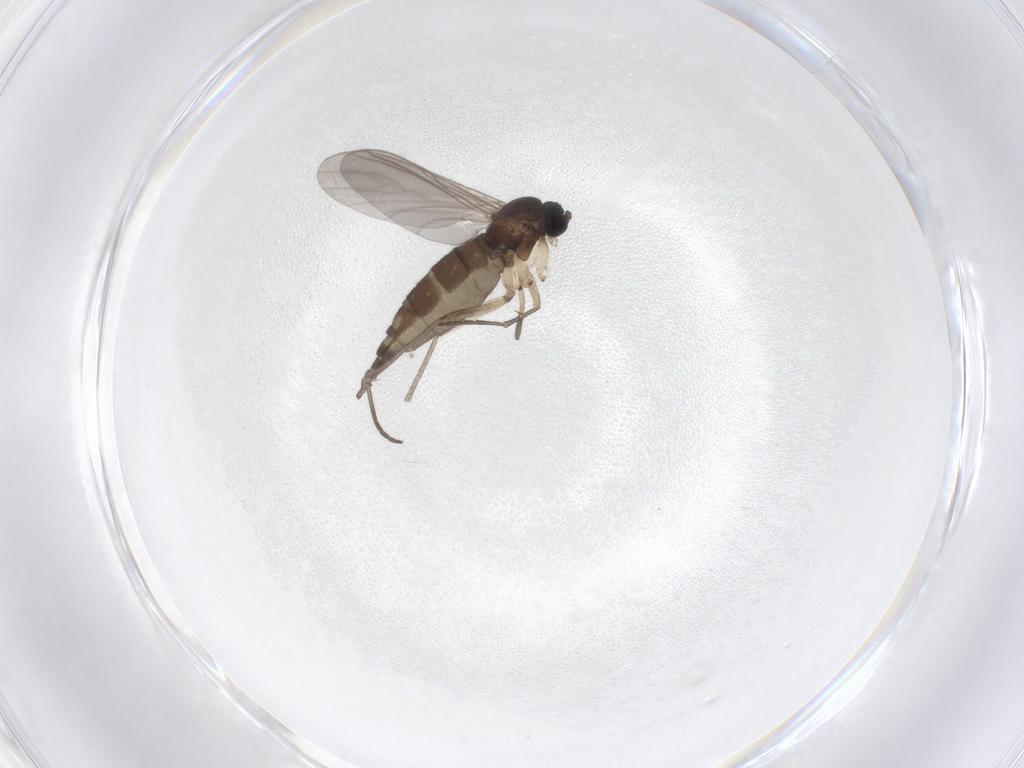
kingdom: Animalia
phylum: Arthropoda
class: Insecta
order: Diptera
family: Sciaridae
